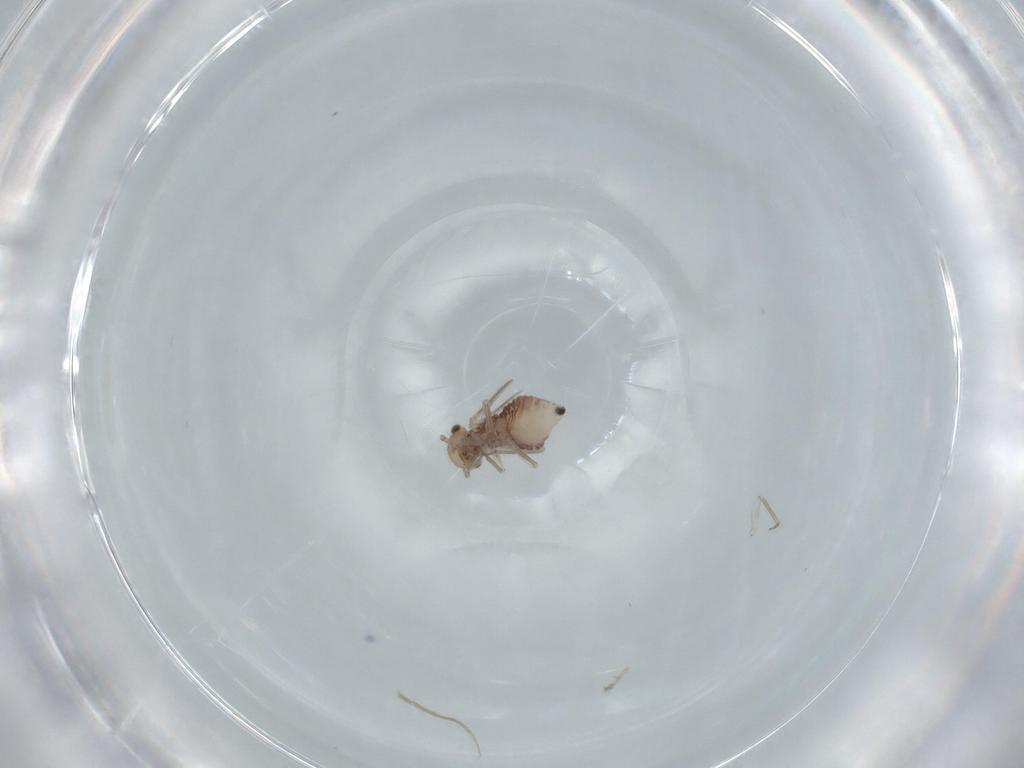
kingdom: Animalia
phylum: Arthropoda
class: Insecta
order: Psocodea
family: Ectopsocidae
